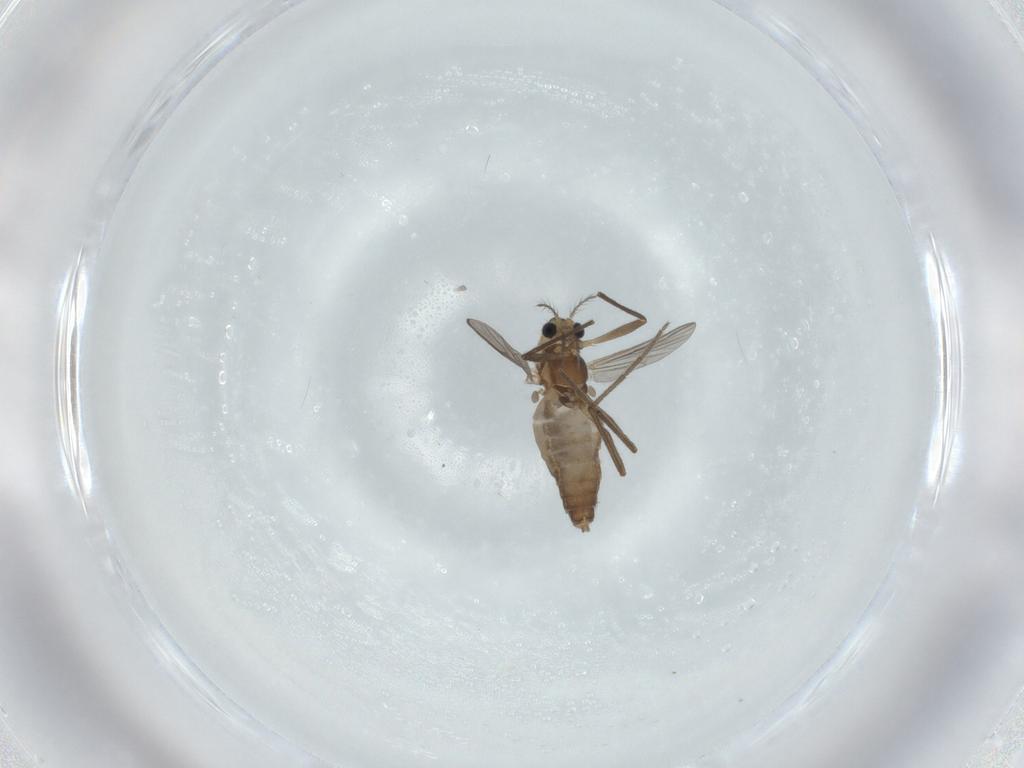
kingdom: Animalia
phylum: Arthropoda
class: Insecta
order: Diptera
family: Chironomidae
